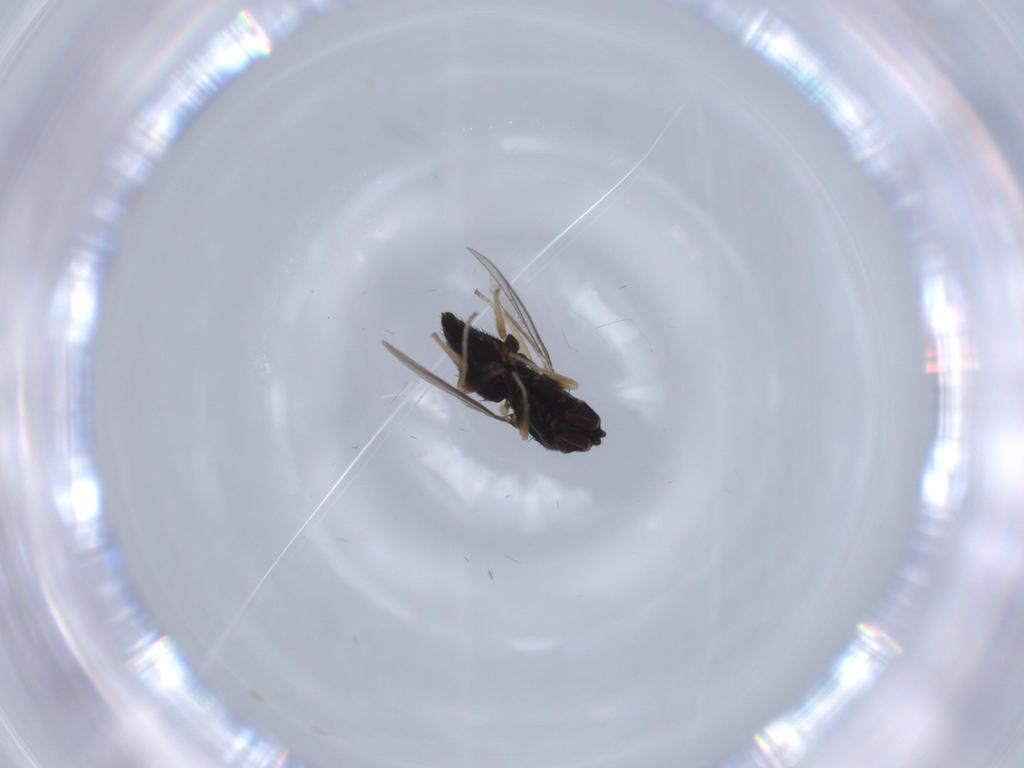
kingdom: Animalia
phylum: Arthropoda
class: Insecta
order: Diptera
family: Dolichopodidae
